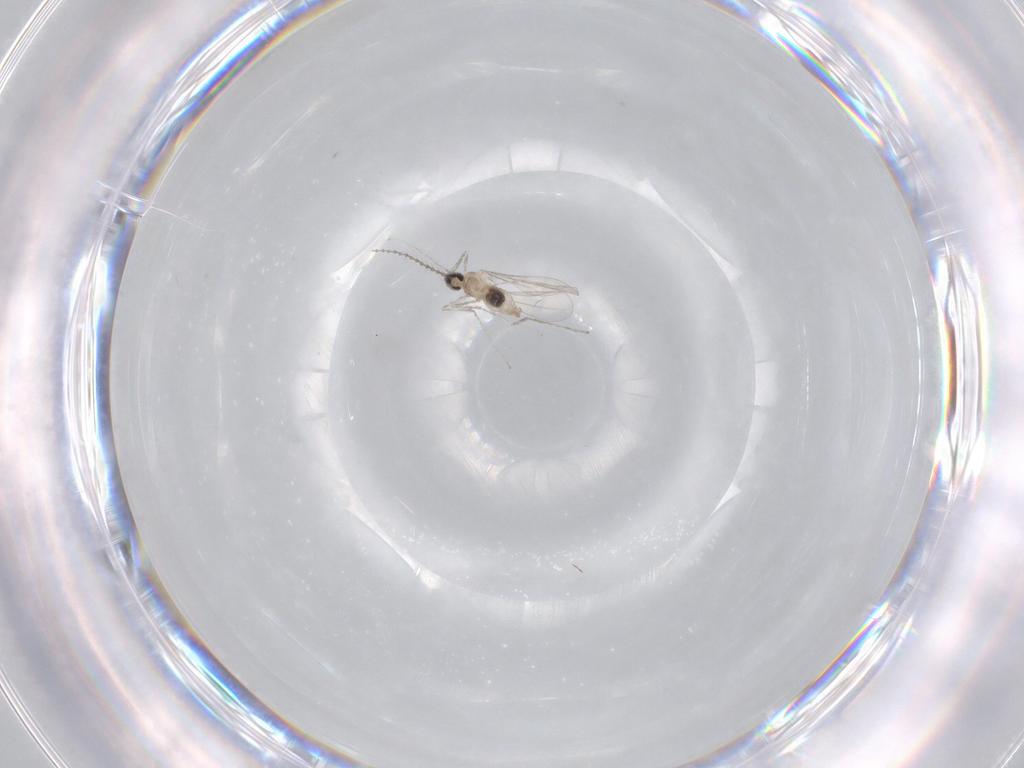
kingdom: Animalia
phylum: Arthropoda
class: Insecta
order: Diptera
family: Cecidomyiidae
